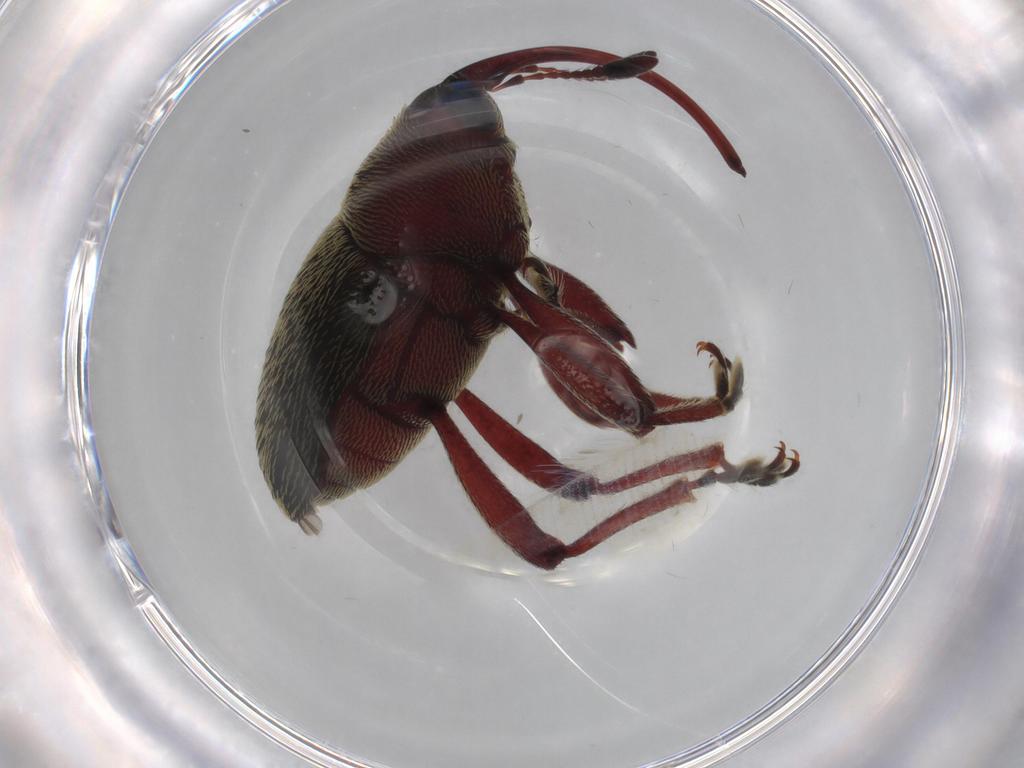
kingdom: Animalia
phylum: Arthropoda
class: Insecta
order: Coleoptera
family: Curculionidae
